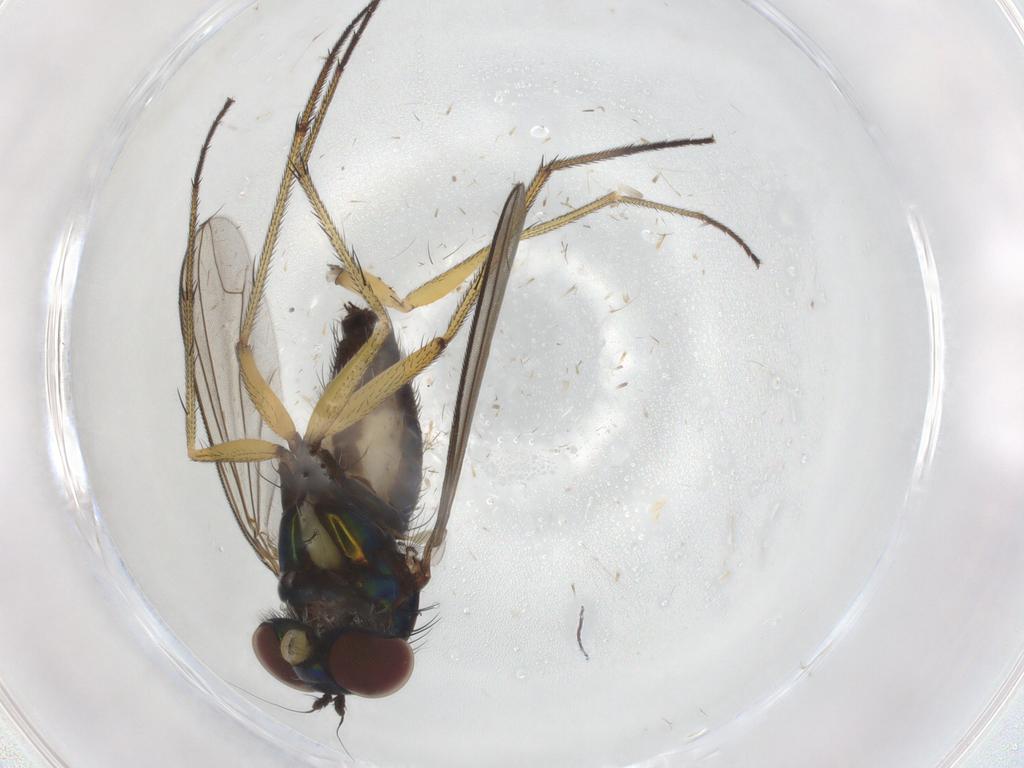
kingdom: Animalia
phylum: Arthropoda
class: Insecta
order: Diptera
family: Dolichopodidae
